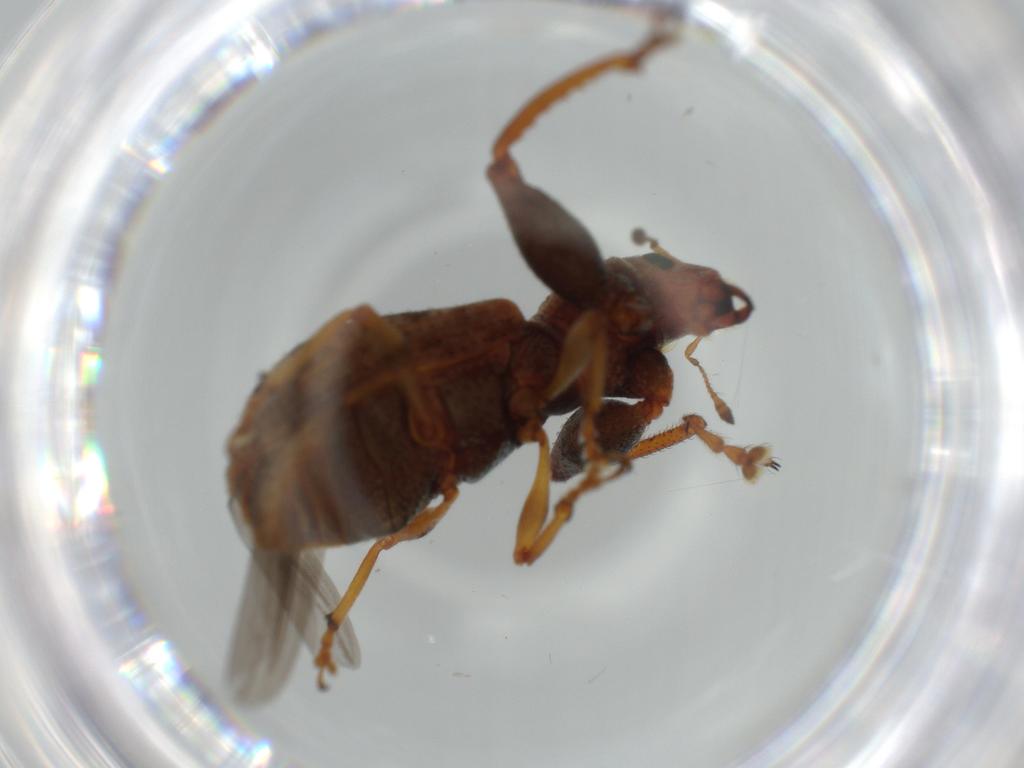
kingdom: Animalia
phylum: Arthropoda
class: Insecta
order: Coleoptera
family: Curculionidae
